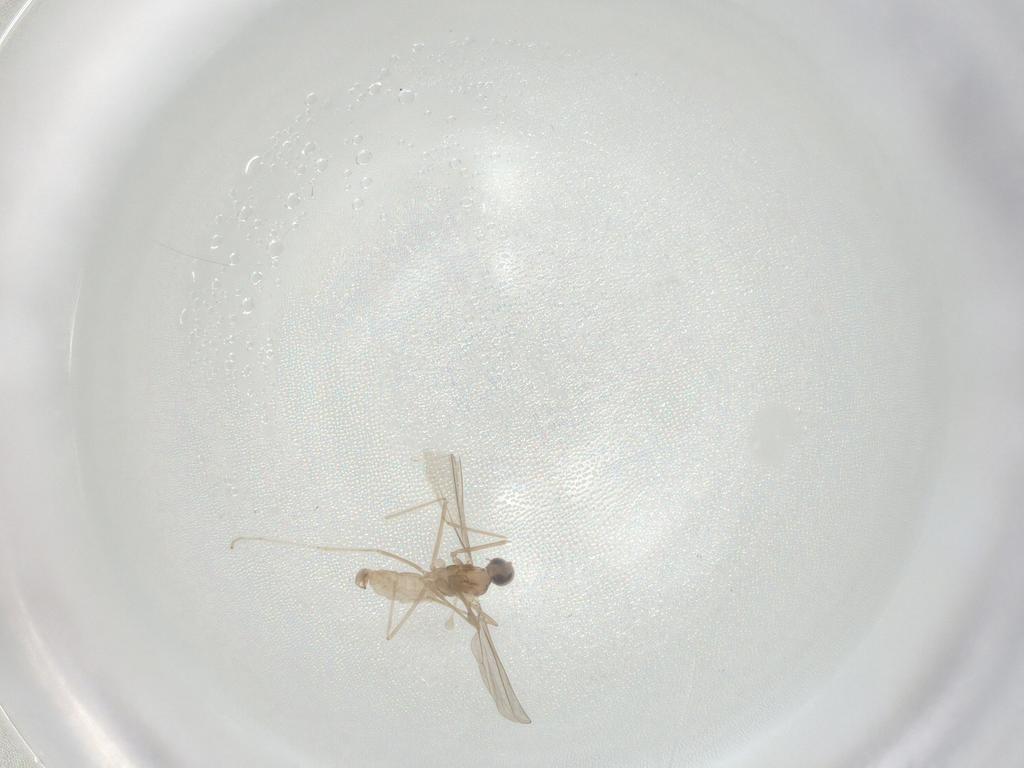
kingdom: Animalia
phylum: Arthropoda
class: Insecta
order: Diptera
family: Cecidomyiidae
